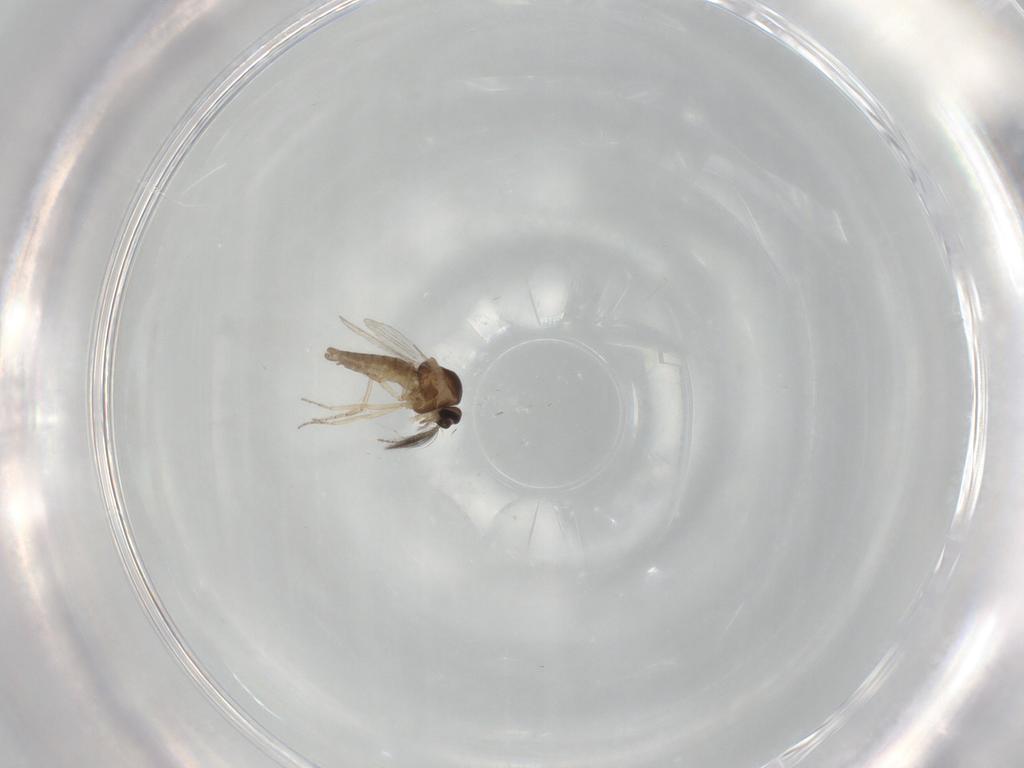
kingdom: Animalia
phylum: Arthropoda
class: Insecta
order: Diptera
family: Ceratopogonidae
